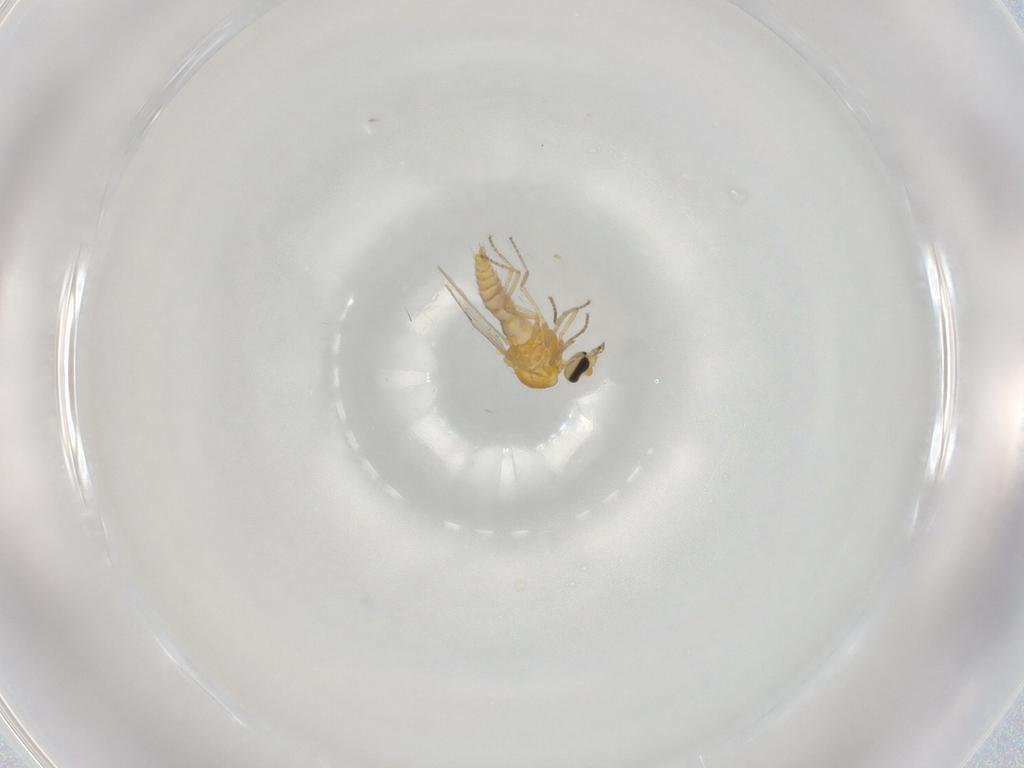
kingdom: Animalia
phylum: Arthropoda
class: Insecta
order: Diptera
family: Ceratopogonidae
